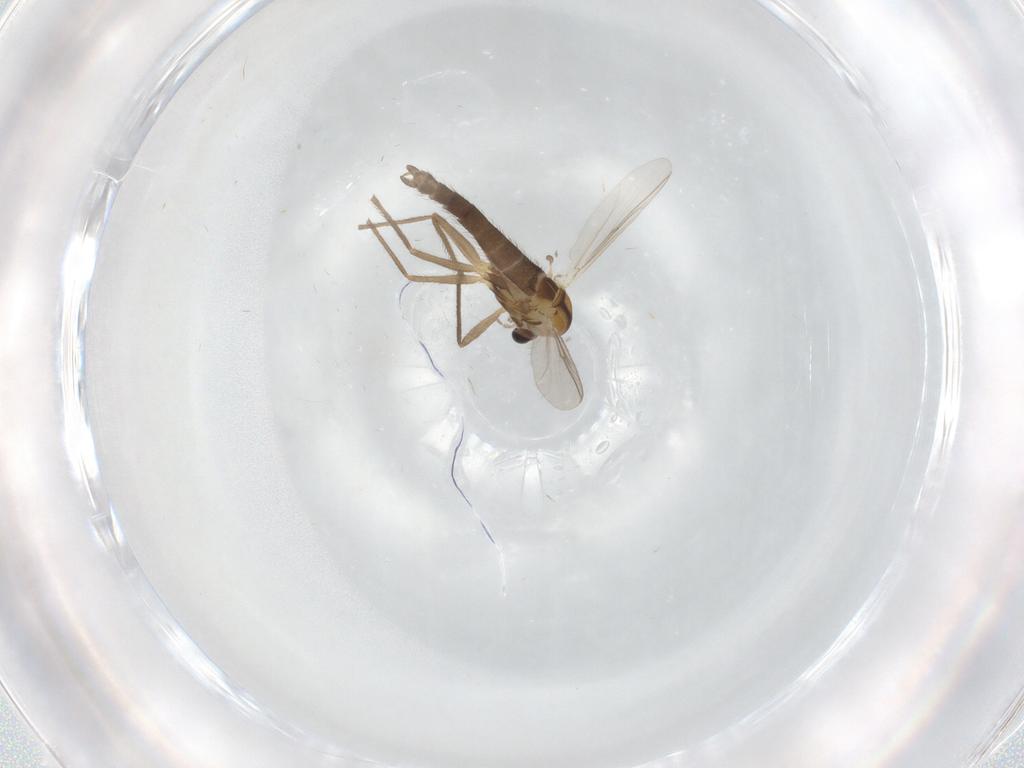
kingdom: Animalia
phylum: Arthropoda
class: Insecta
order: Diptera
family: Chironomidae
